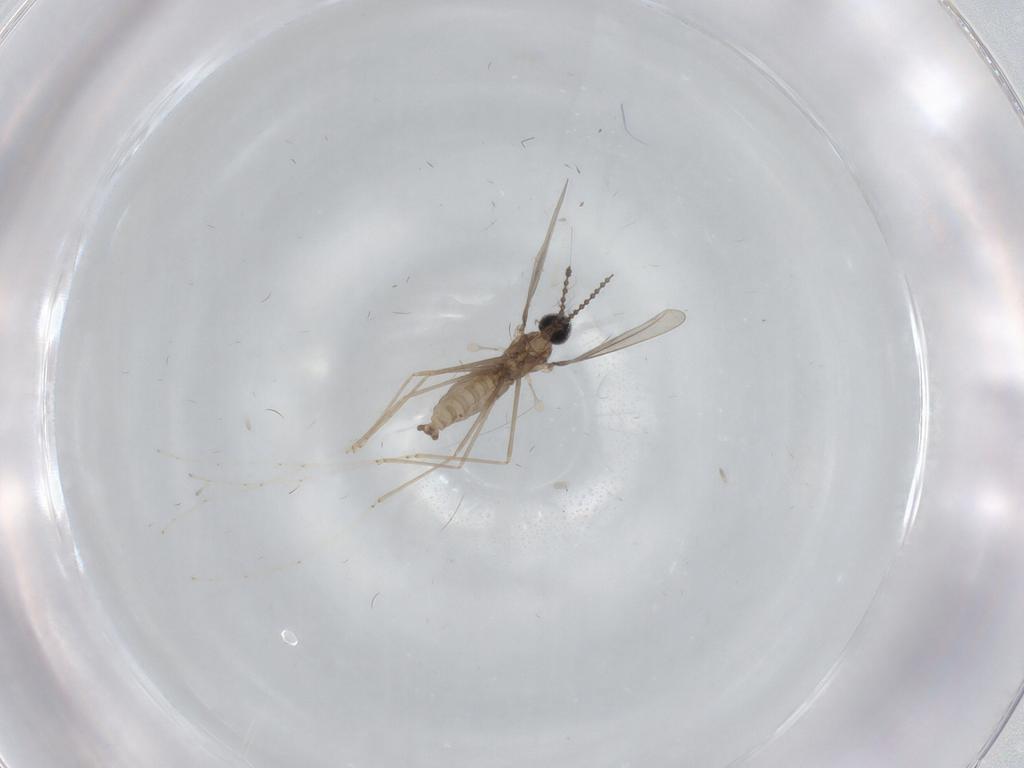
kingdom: Animalia
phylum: Arthropoda
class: Insecta
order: Diptera
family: Cecidomyiidae
